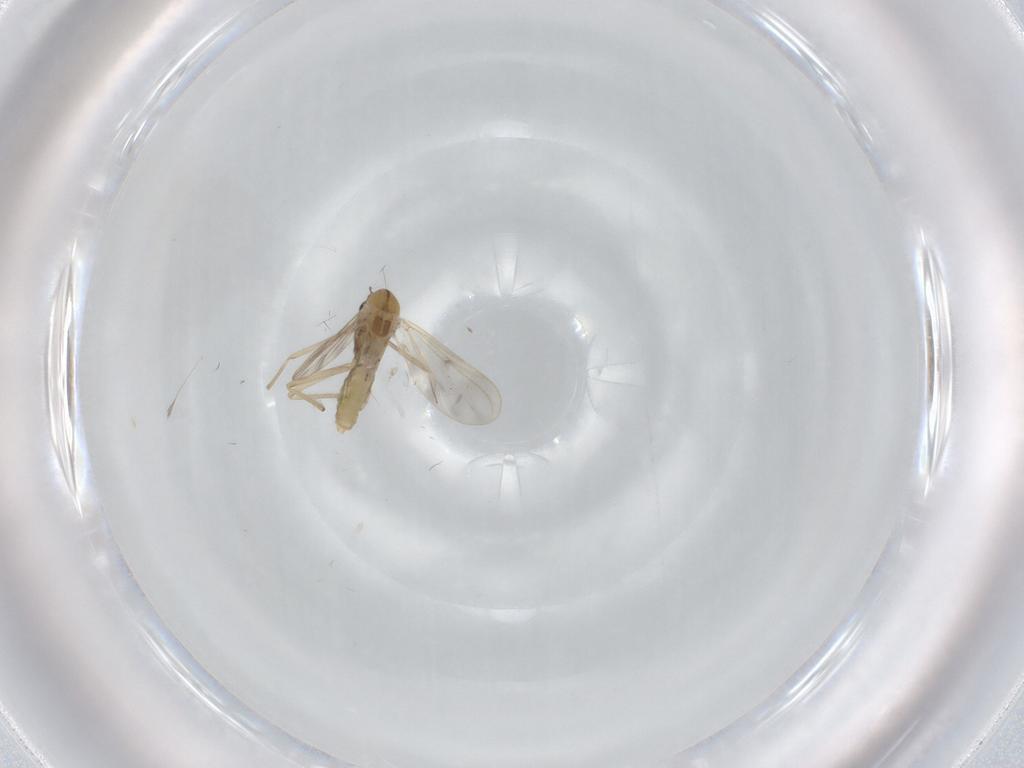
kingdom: Animalia
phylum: Arthropoda
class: Insecta
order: Diptera
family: Chironomidae
